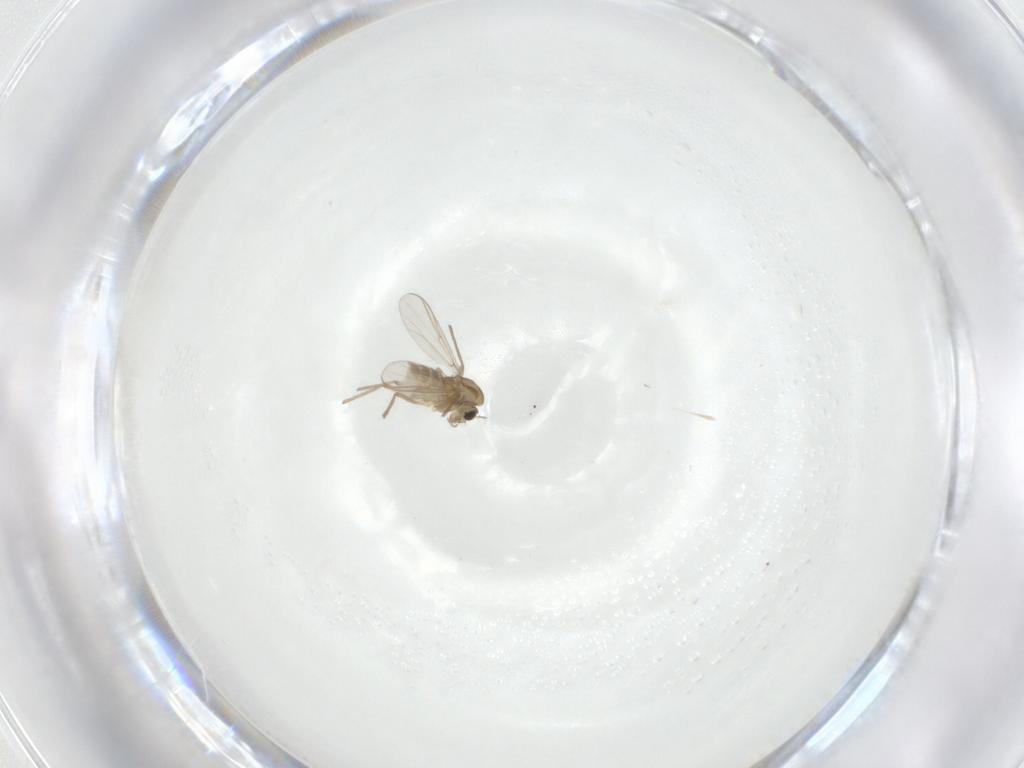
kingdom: Animalia
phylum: Arthropoda
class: Insecta
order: Diptera
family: Chironomidae
